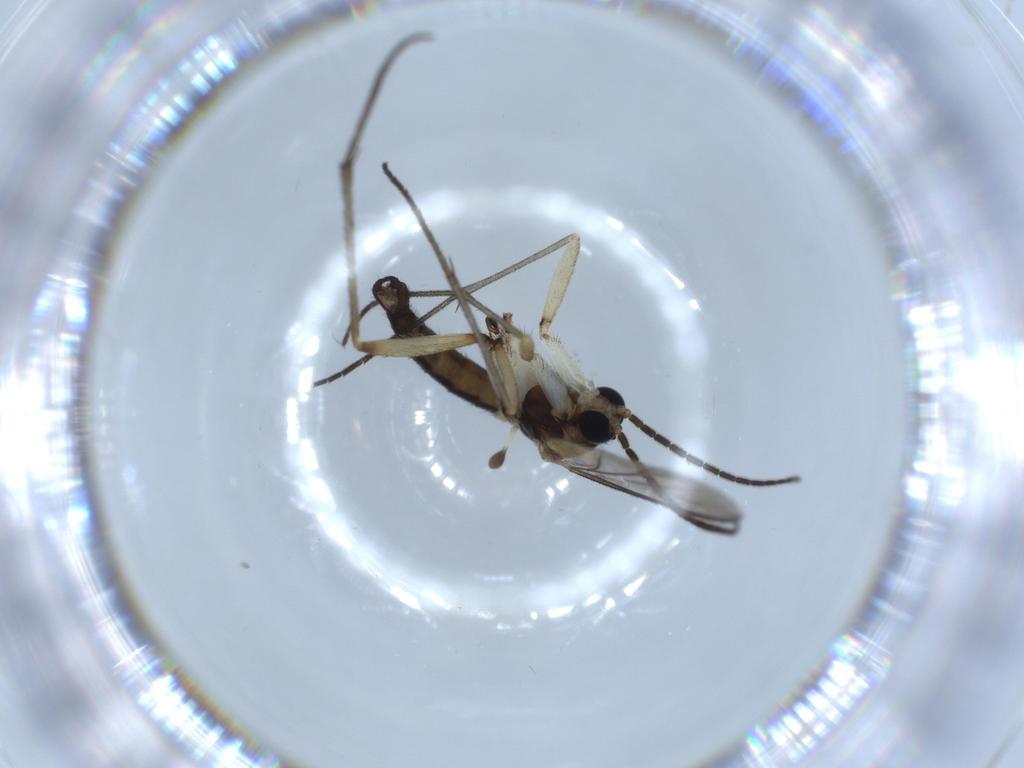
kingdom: Animalia
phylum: Arthropoda
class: Insecta
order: Diptera
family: Sciaridae
